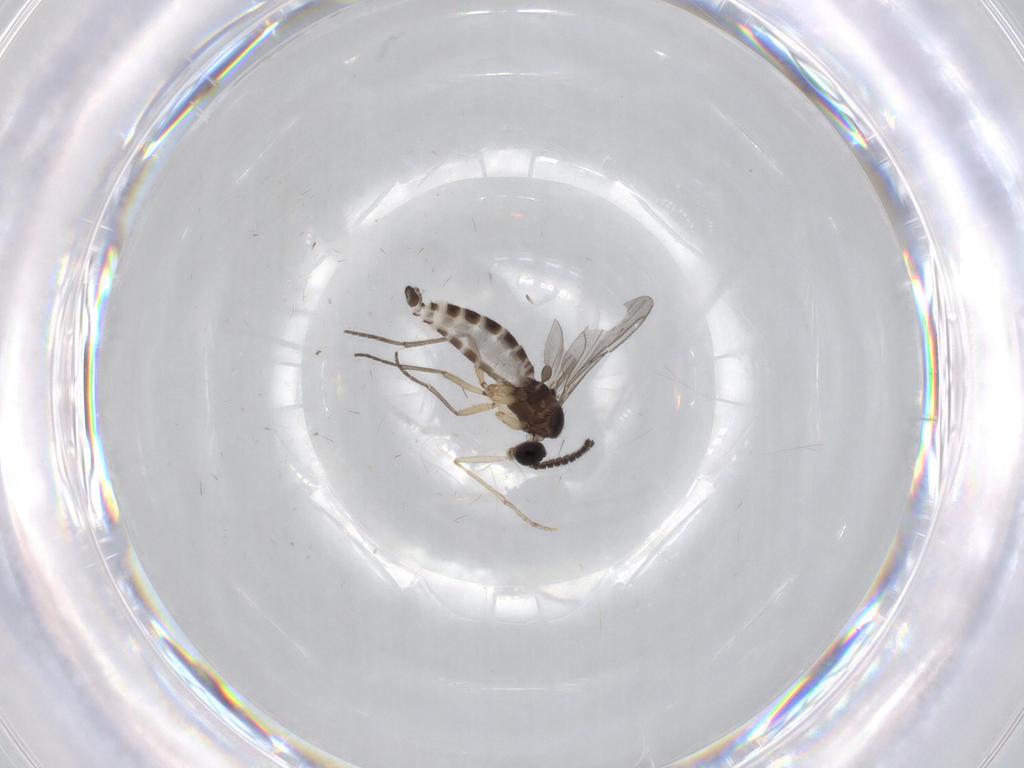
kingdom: Animalia
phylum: Arthropoda
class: Insecta
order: Diptera
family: Sciaridae
